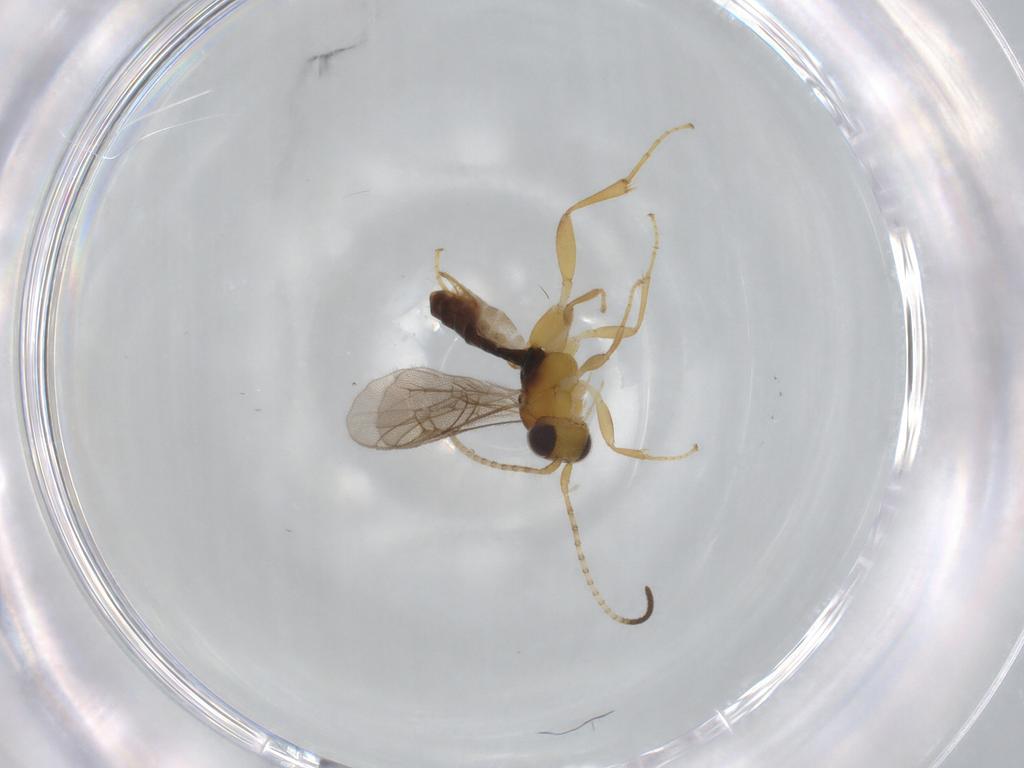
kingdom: Animalia
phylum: Arthropoda
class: Insecta
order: Hymenoptera
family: Ichneumonidae
